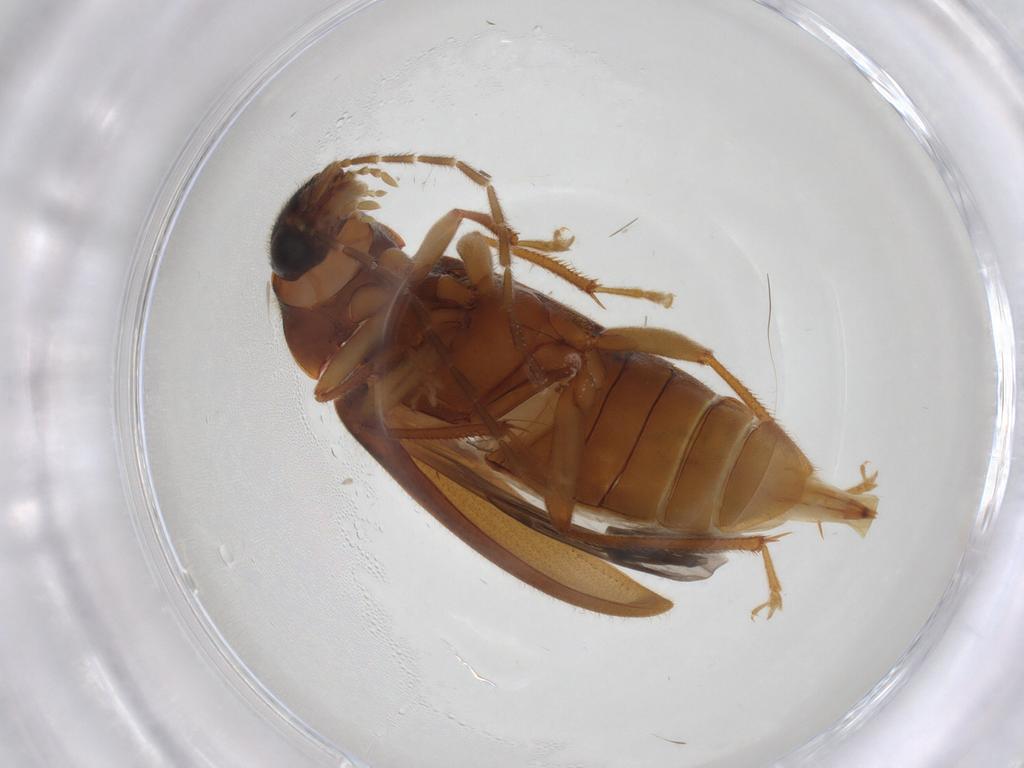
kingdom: Animalia
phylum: Arthropoda
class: Insecta
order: Coleoptera
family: Ptilodactylidae
